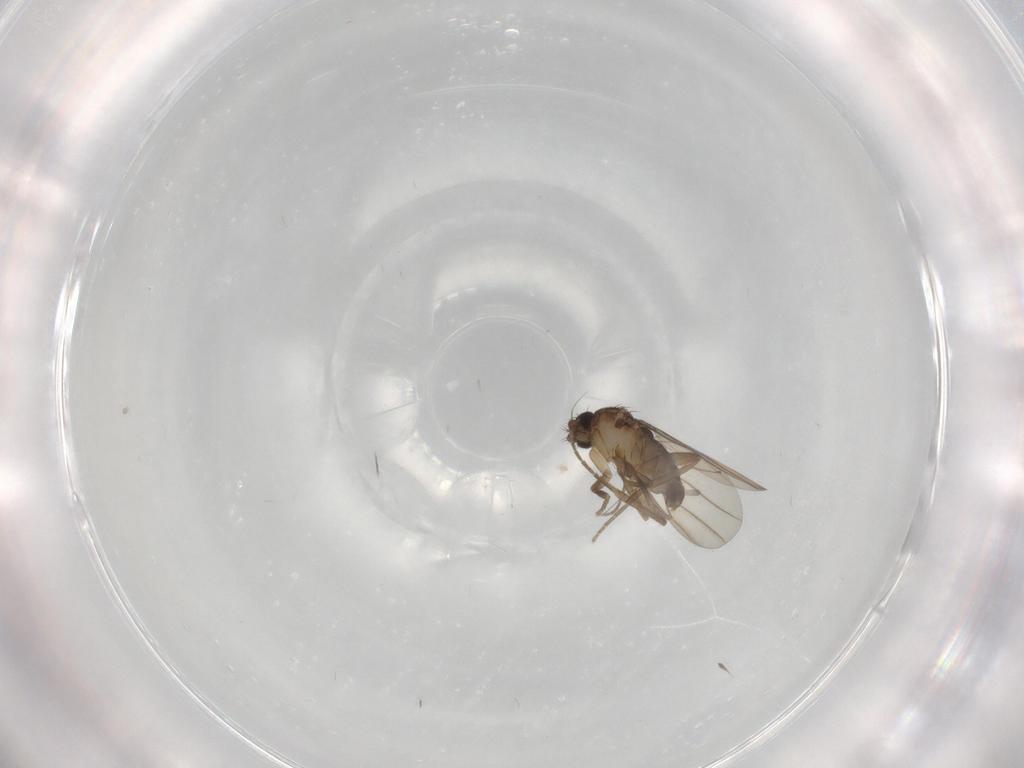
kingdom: Animalia
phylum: Arthropoda
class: Insecta
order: Diptera
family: Phoridae
